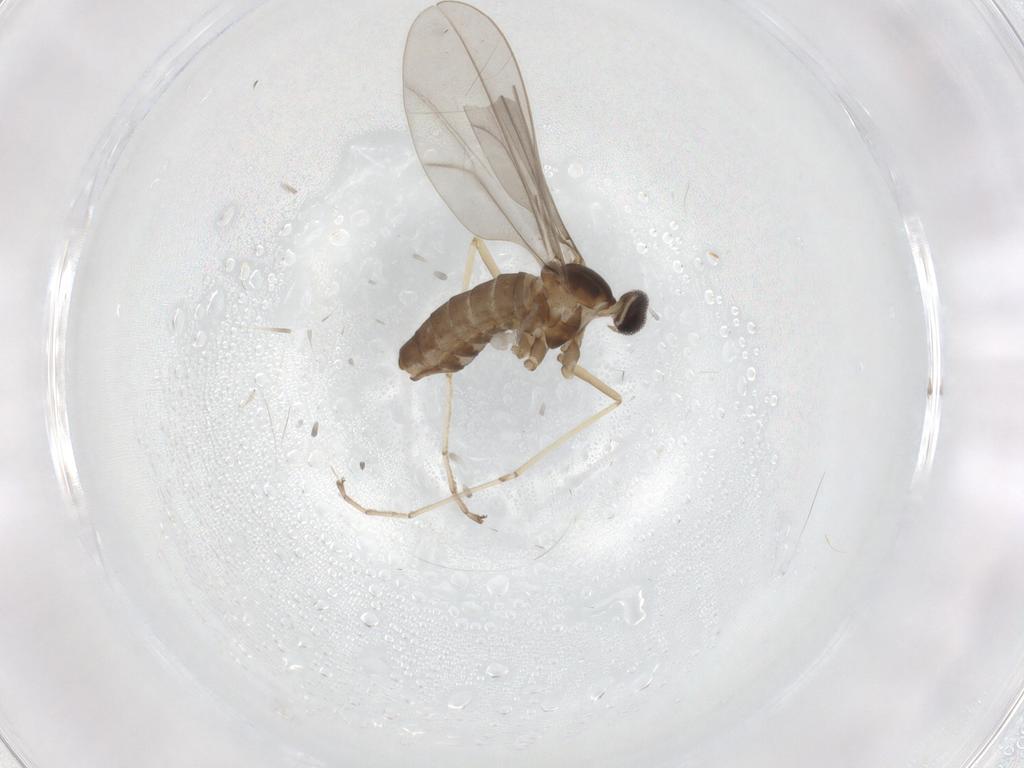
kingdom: Animalia
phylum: Arthropoda
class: Insecta
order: Diptera
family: Cecidomyiidae
